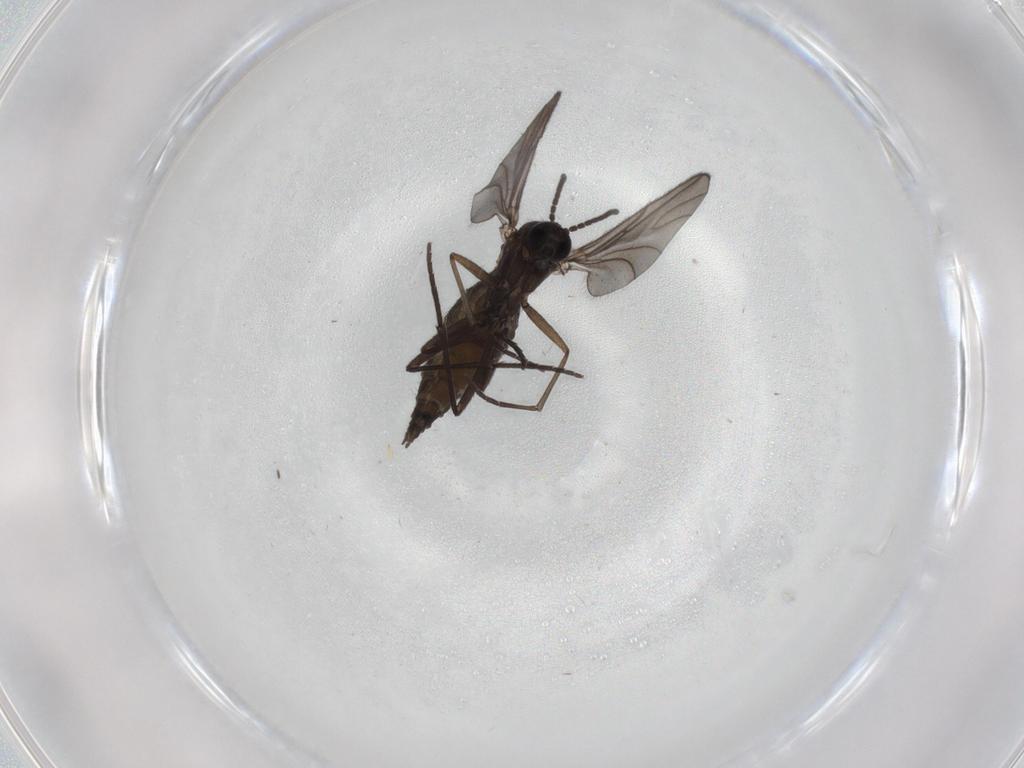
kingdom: Animalia
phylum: Arthropoda
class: Insecta
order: Diptera
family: Sciaridae
